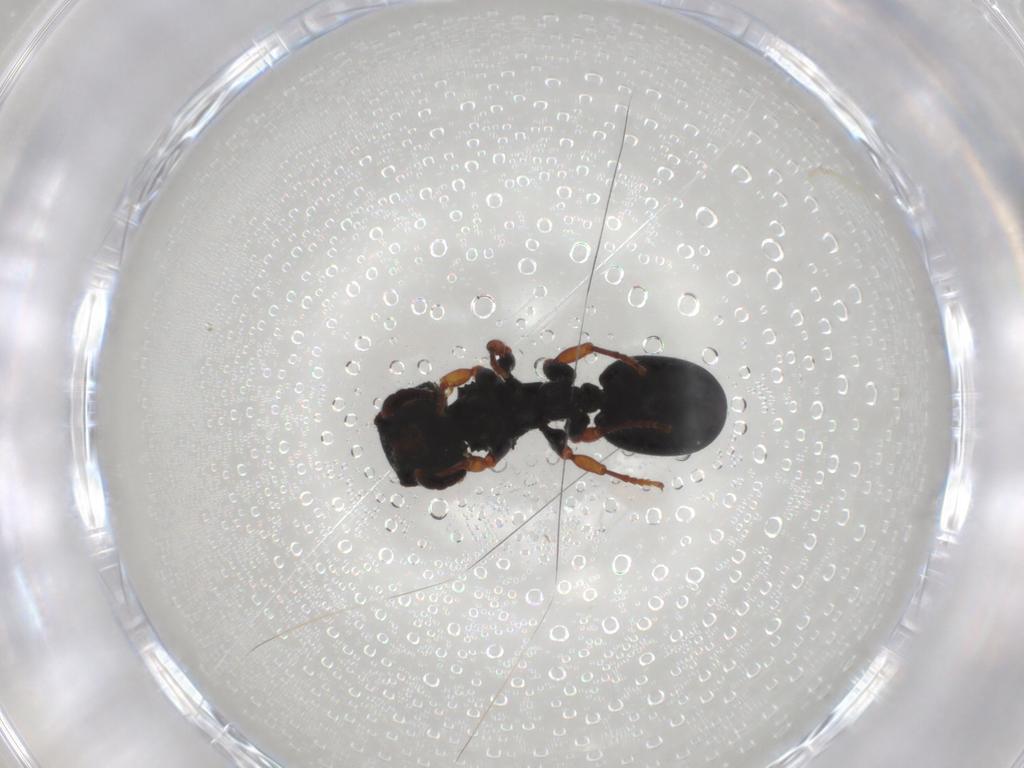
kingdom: Animalia
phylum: Arthropoda
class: Insecta
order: Hymenoptera
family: Formicidae
